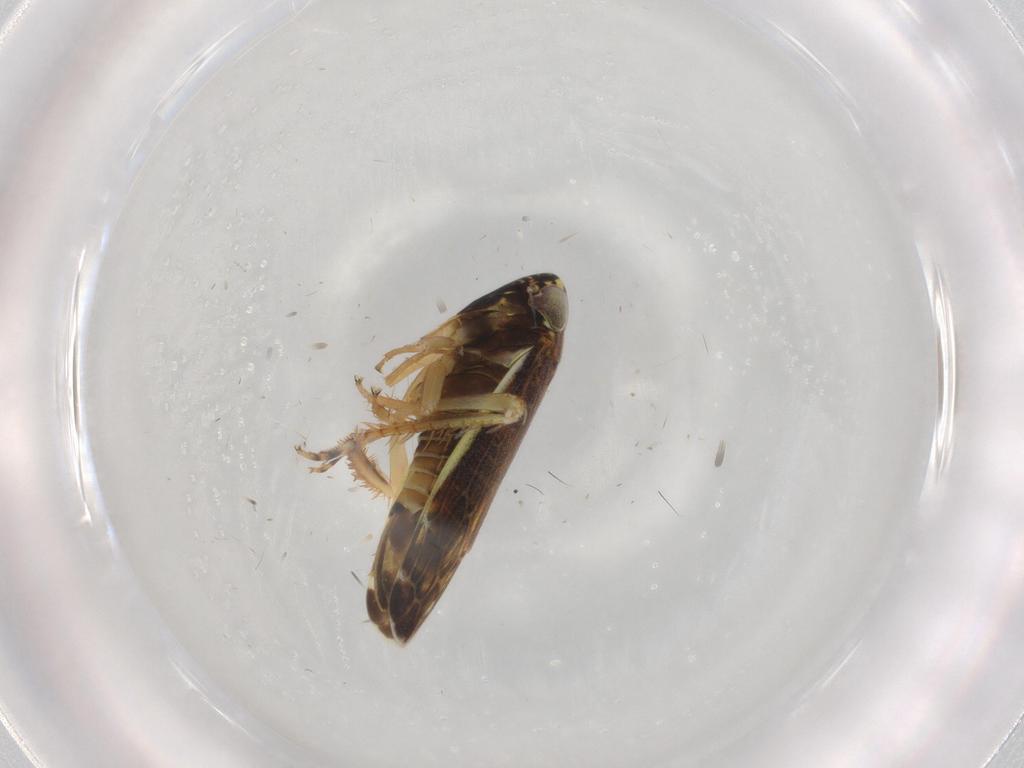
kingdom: Animalia
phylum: Arthropoda
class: Insecta
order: Hemiptera
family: Cicadellidae
